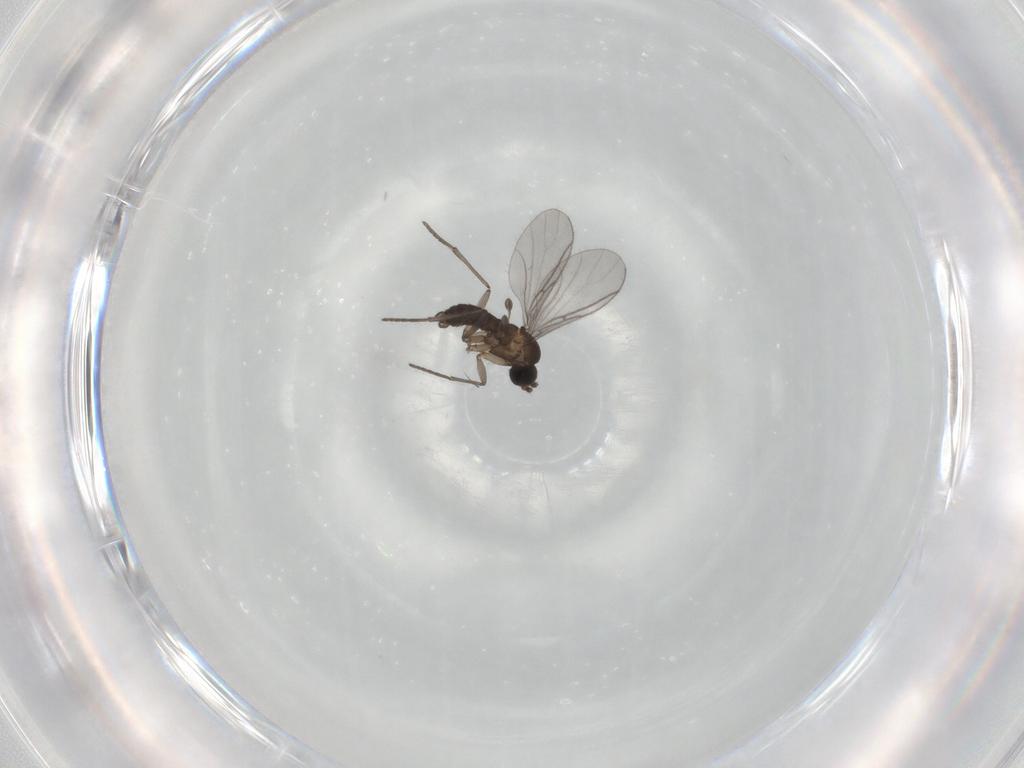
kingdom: Animalia
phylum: Arthropoda
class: Insecta
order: Diptera
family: Sciaridae
